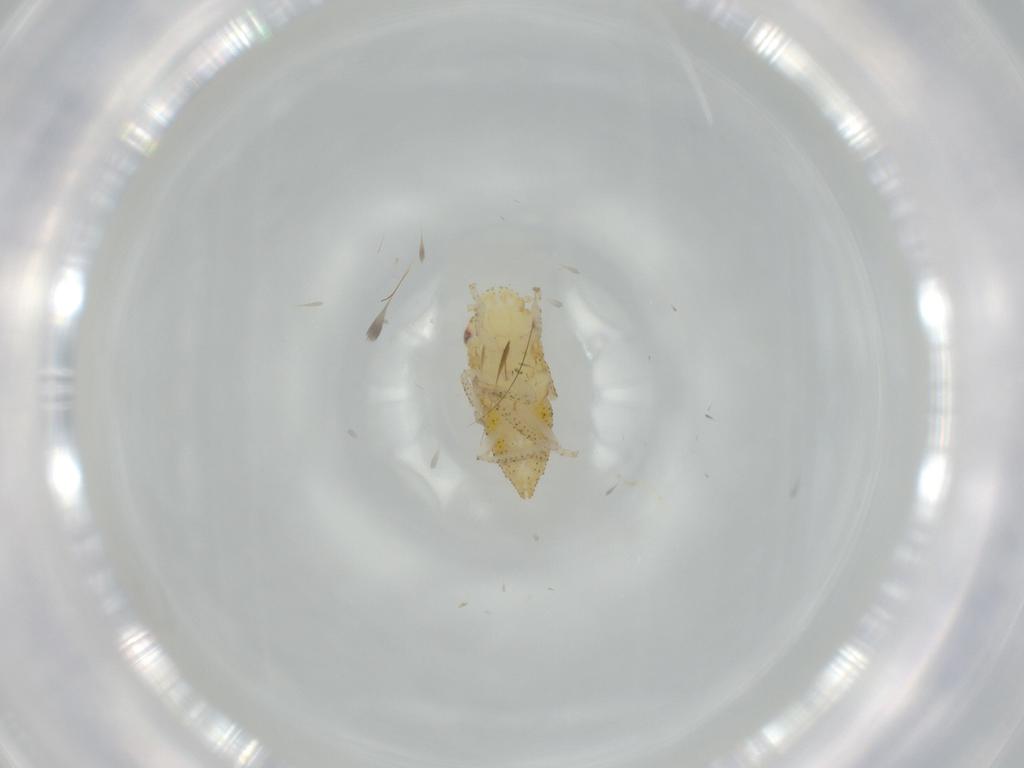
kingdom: Animalia
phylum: Arthropoda
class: Insecta
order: Hemiptera
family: Cicadellidae
